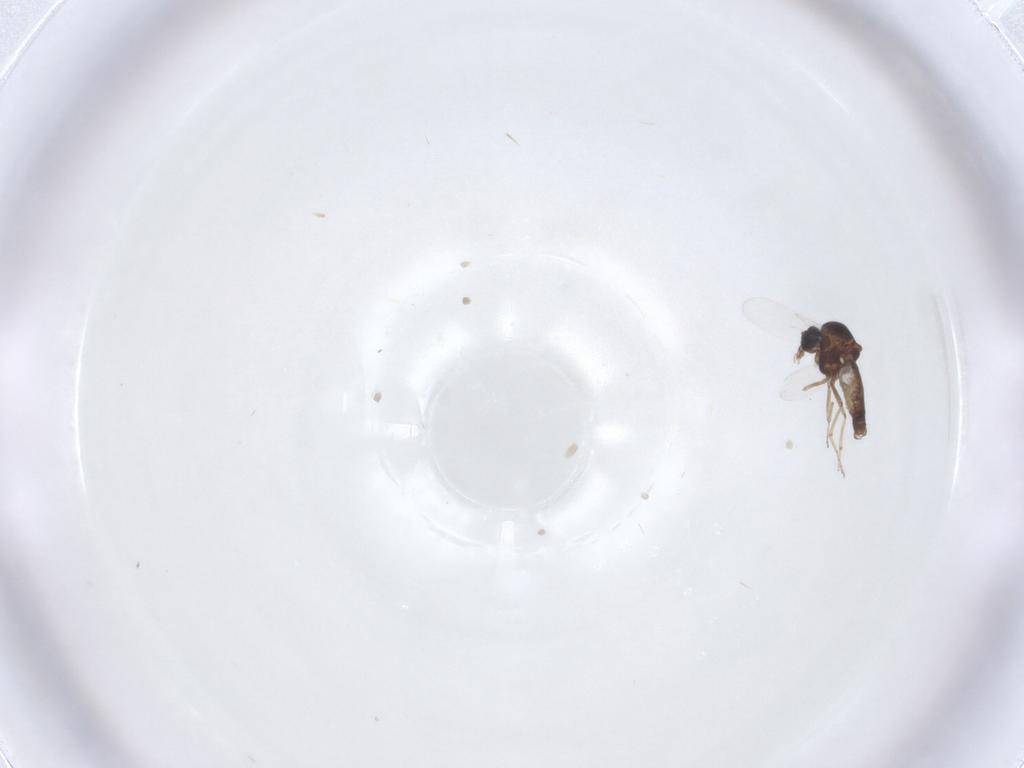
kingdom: Animalia
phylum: Arthropoda
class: Insecta
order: Diptera
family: Ceratopogonidae
